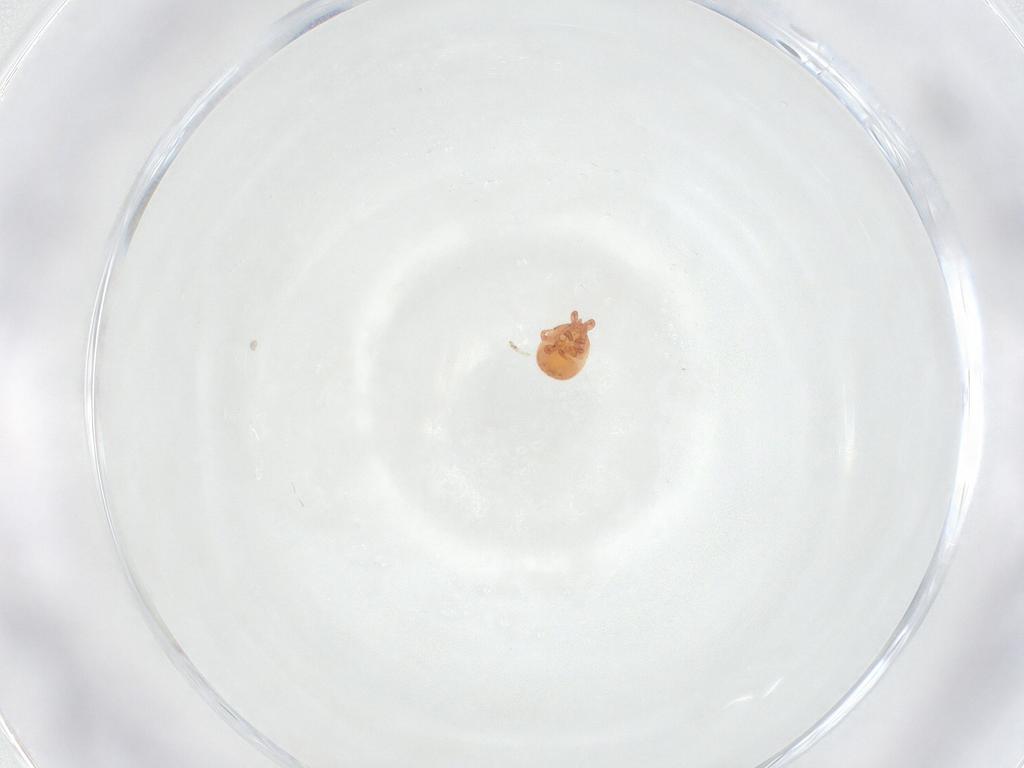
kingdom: Animalia
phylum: Arthropoda
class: Arachnida
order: Mesostigmata
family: Zerconidae
